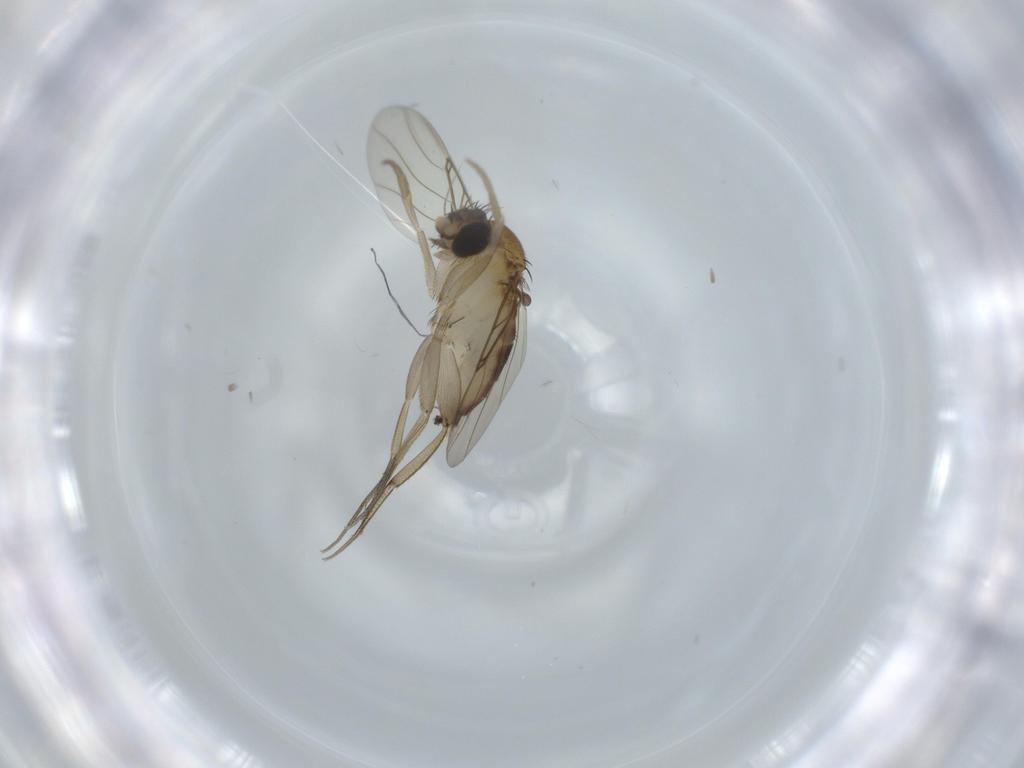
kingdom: Animalia
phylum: Arthropoda
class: Insecta
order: Diptera
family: Phoridae
